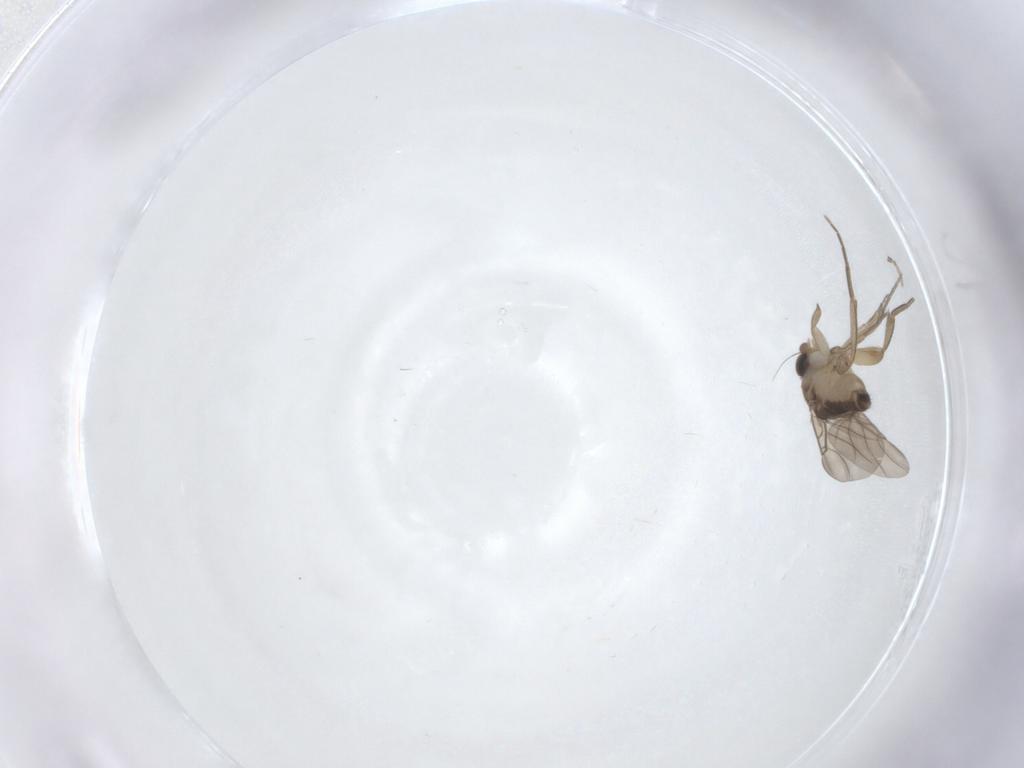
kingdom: Animalia
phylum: Arthropoda
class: Insecta
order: Diptera
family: Phoridae
